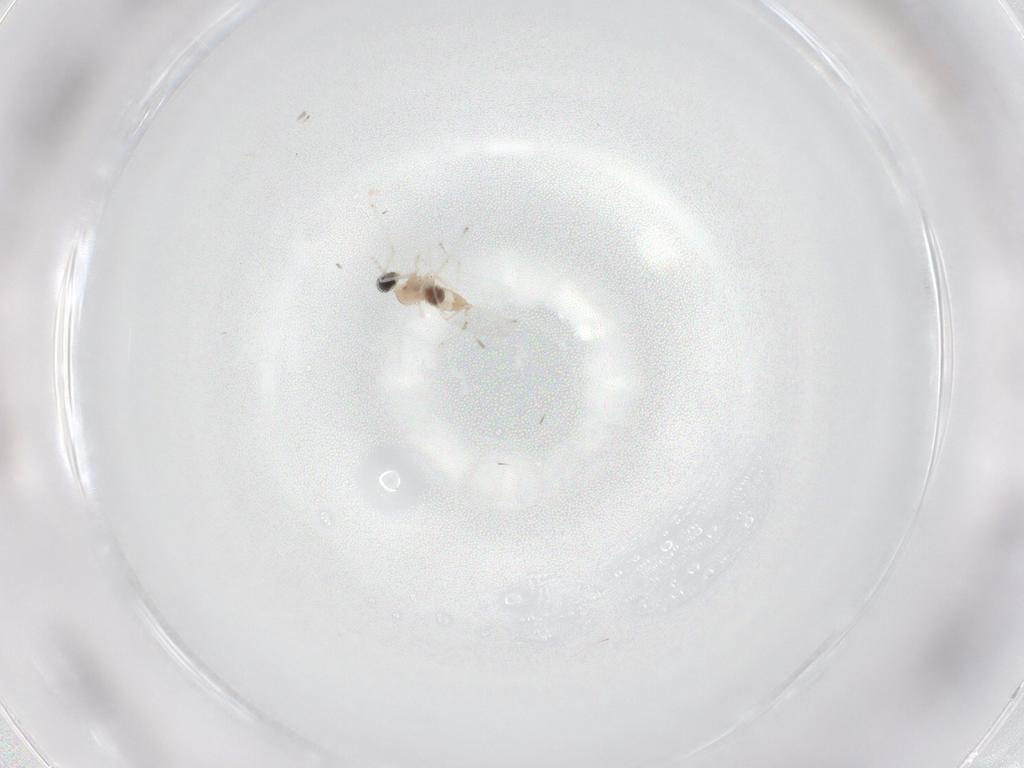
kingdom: Animalia
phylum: Arthropoda
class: Insecta
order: Diptera
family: Cecidomyiidae
